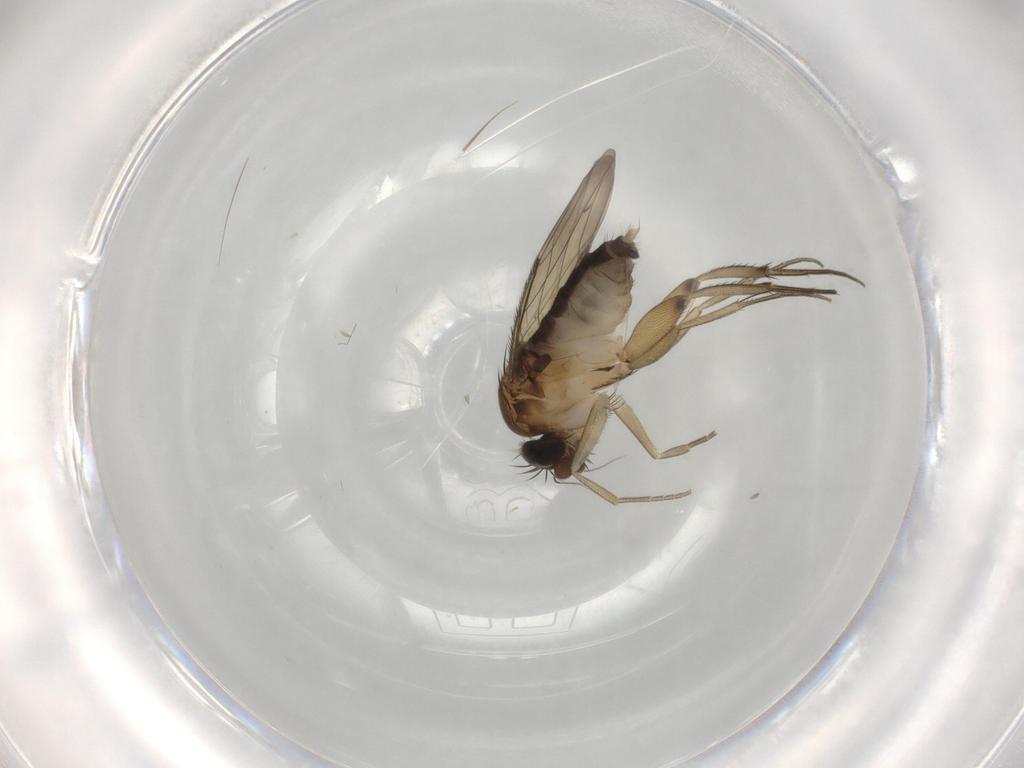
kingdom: Animalia
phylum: Arthropoda
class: Insecta
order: Diptera
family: Phoridae
